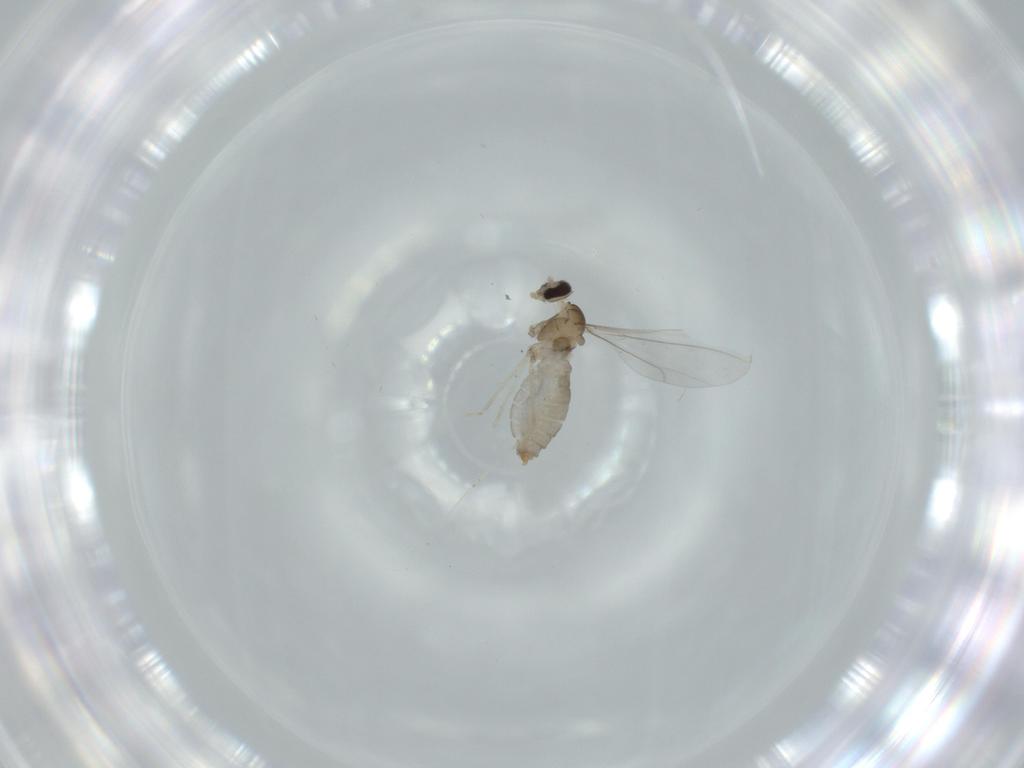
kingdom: Animalia
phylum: Arthropoda
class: Insecta
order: Diptera
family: Cecidomyiidae
